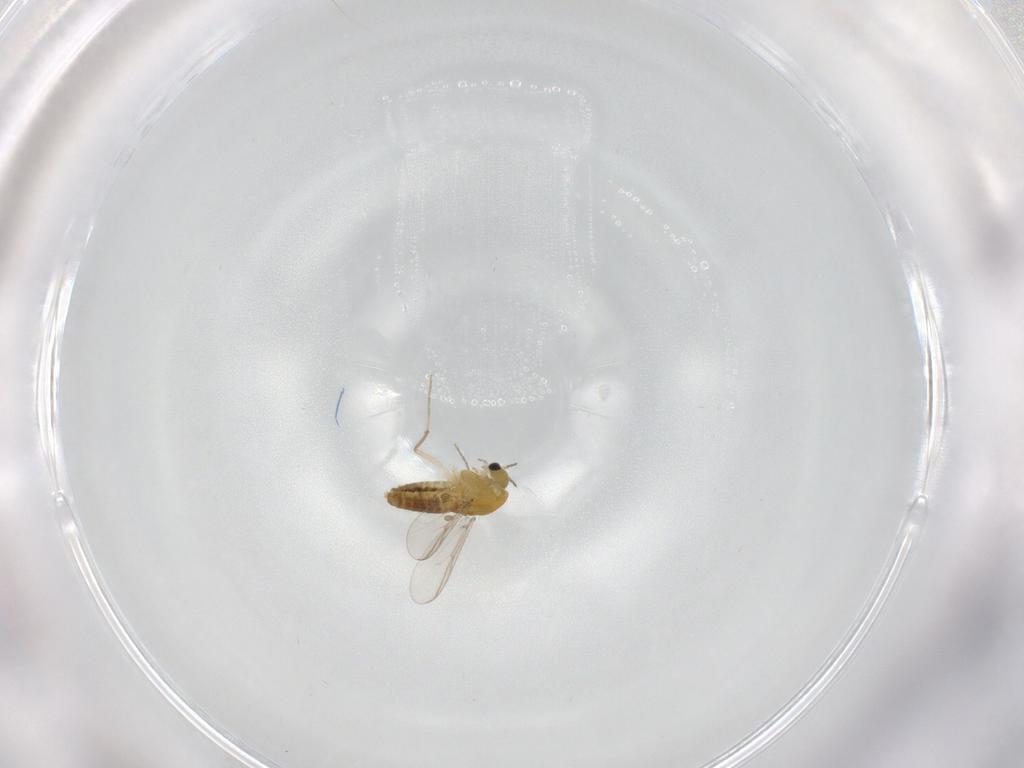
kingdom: Animalia
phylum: Arthropoda
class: Insecta
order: Diptera
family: Chironomidae
